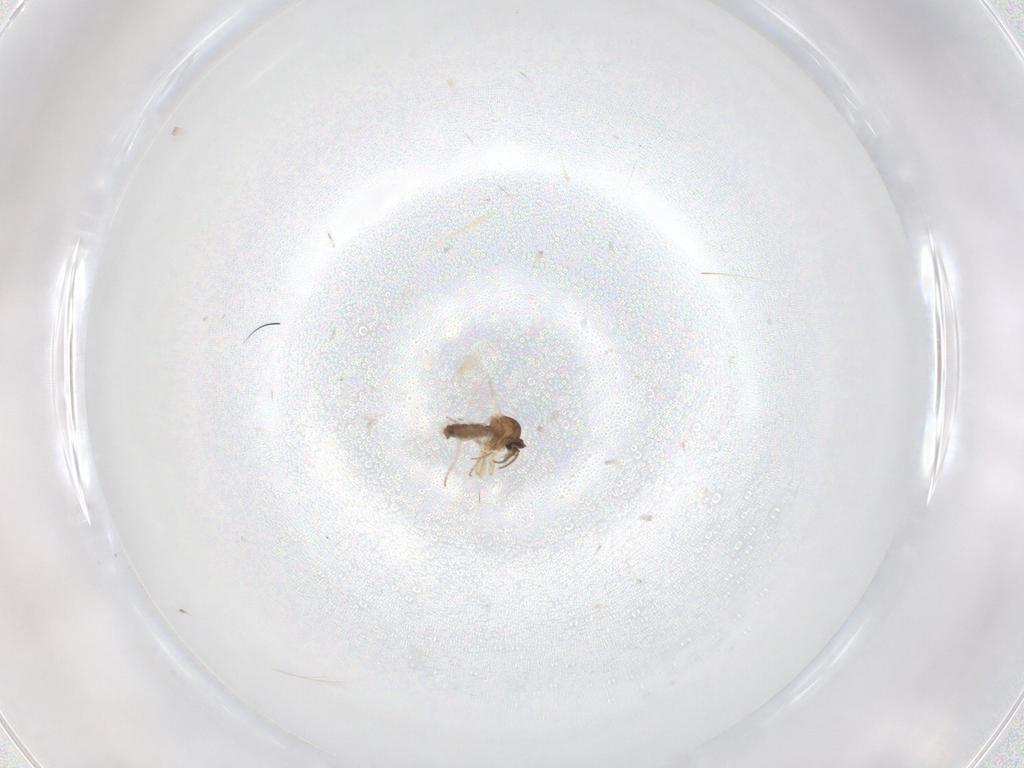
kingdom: Animalia
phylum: Arthropoda
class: Insecta
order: Diptera
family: Ceratopogonidae
